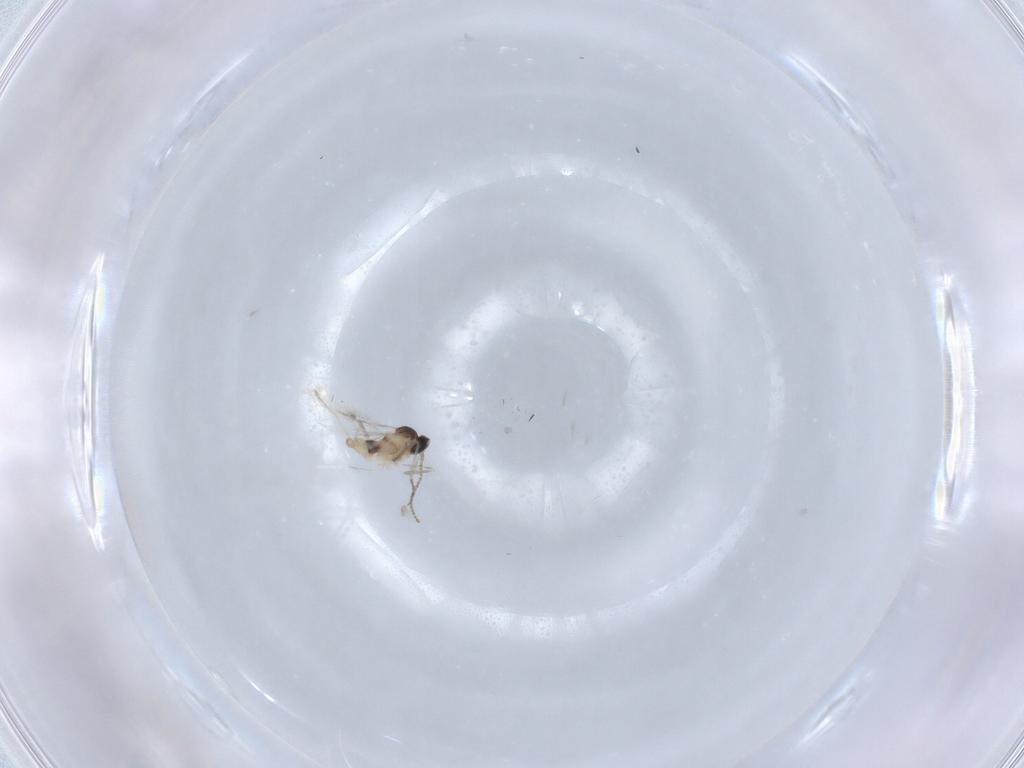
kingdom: Animalia
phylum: Arthropoda
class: Insecta
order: Diptera
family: Cecidomyiidae
